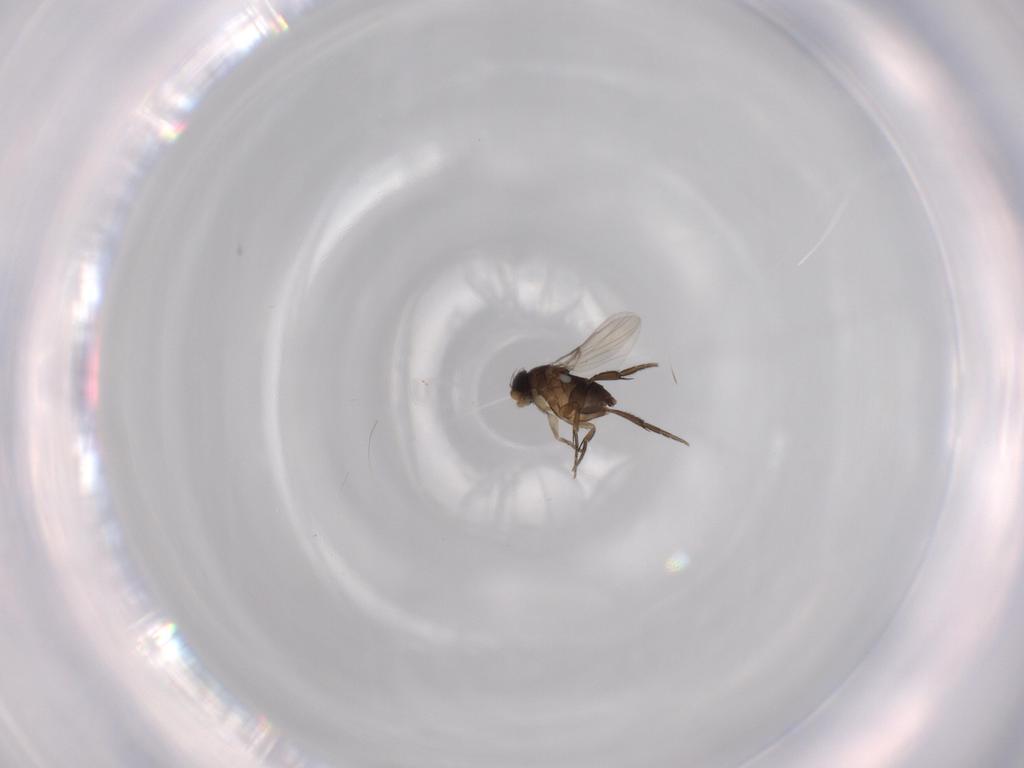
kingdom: Animalia
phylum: Arthropoda
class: Insecta
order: Diptera
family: Phoridae
